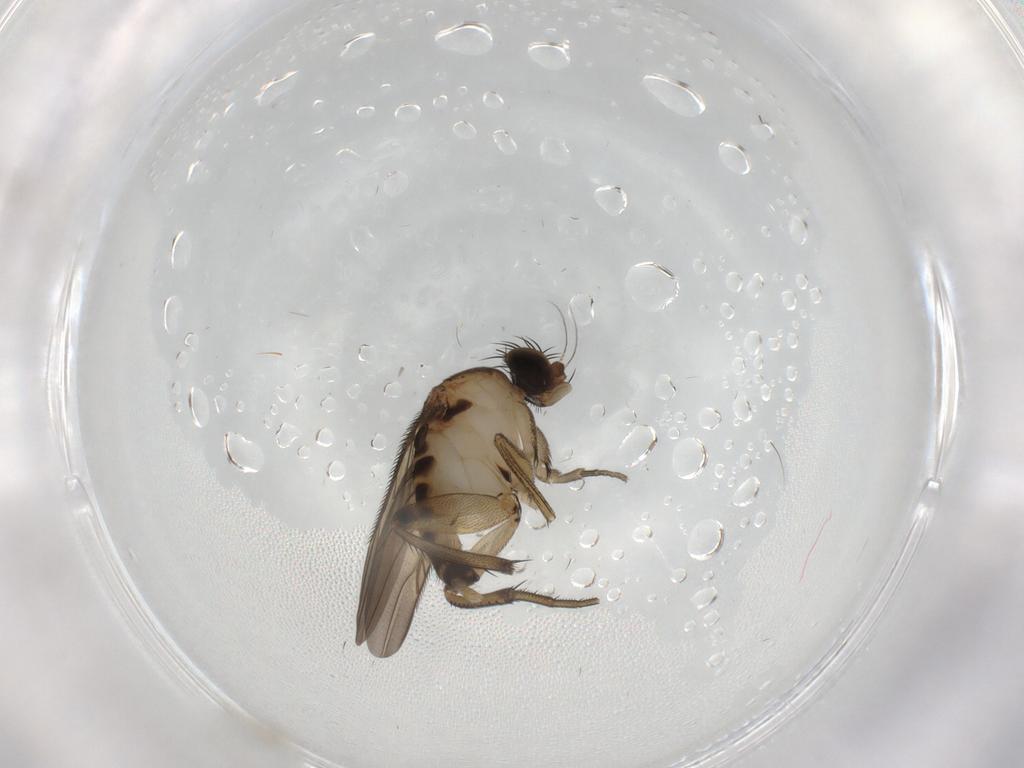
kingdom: Animalia
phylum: Arthropoda
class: Insecta
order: Diptera
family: Phoridae
